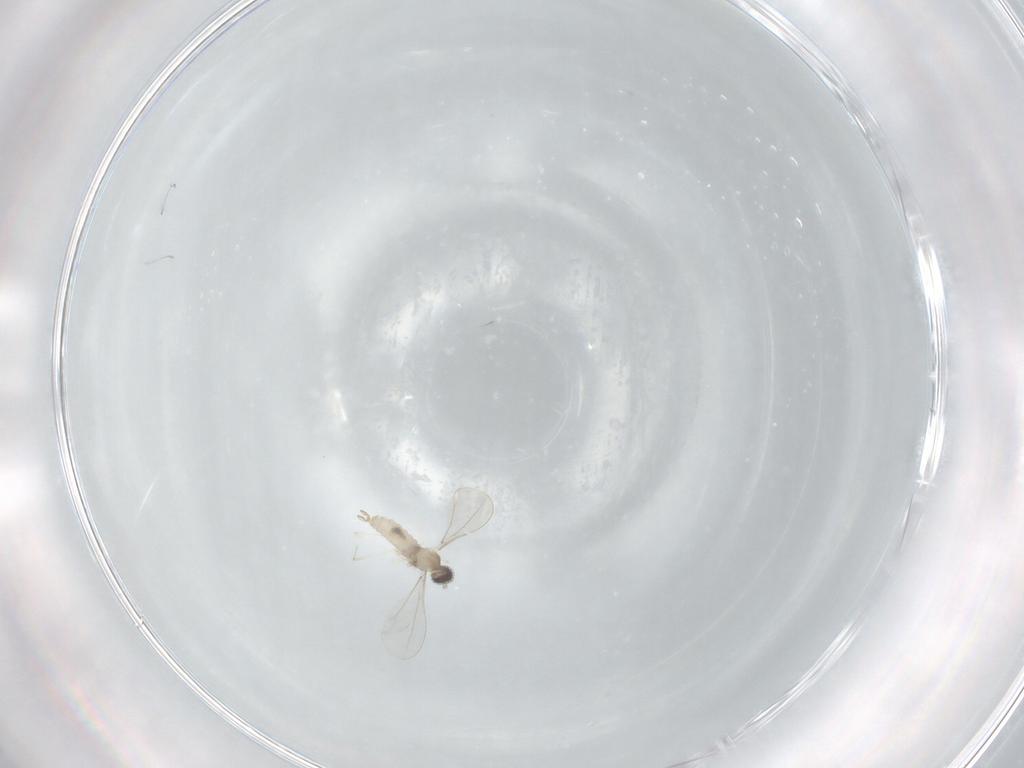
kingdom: Animalia
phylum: Arthropoda
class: Insecta
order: Diptera
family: Cecidomyiidae
